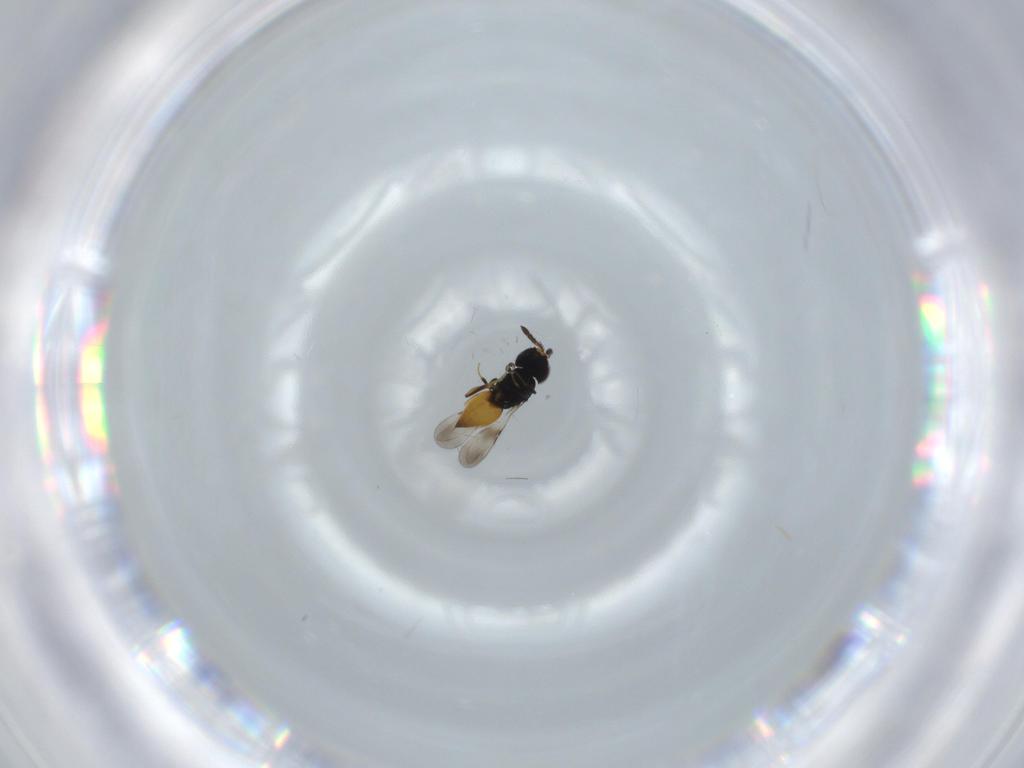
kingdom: Animalia
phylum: Arthropoda
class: Insecta
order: Hymenoptera
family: Ceraphronidae
